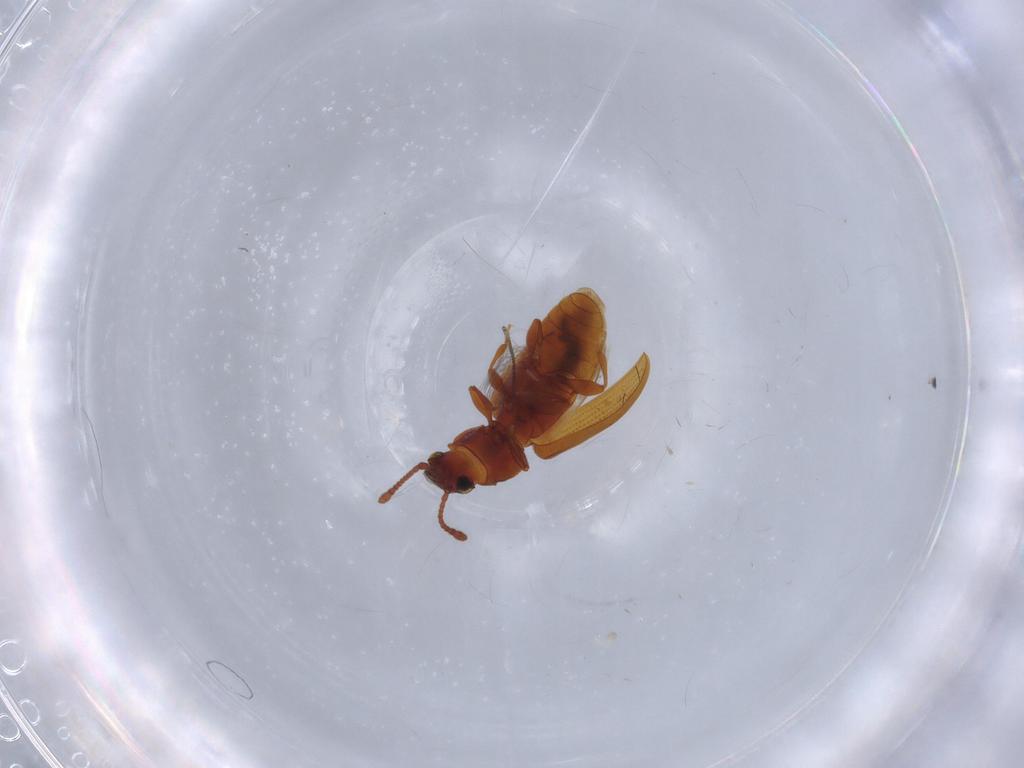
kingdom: Animalia
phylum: Arthropoda
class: Insecta
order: Coleoptera
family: Silvanidae
